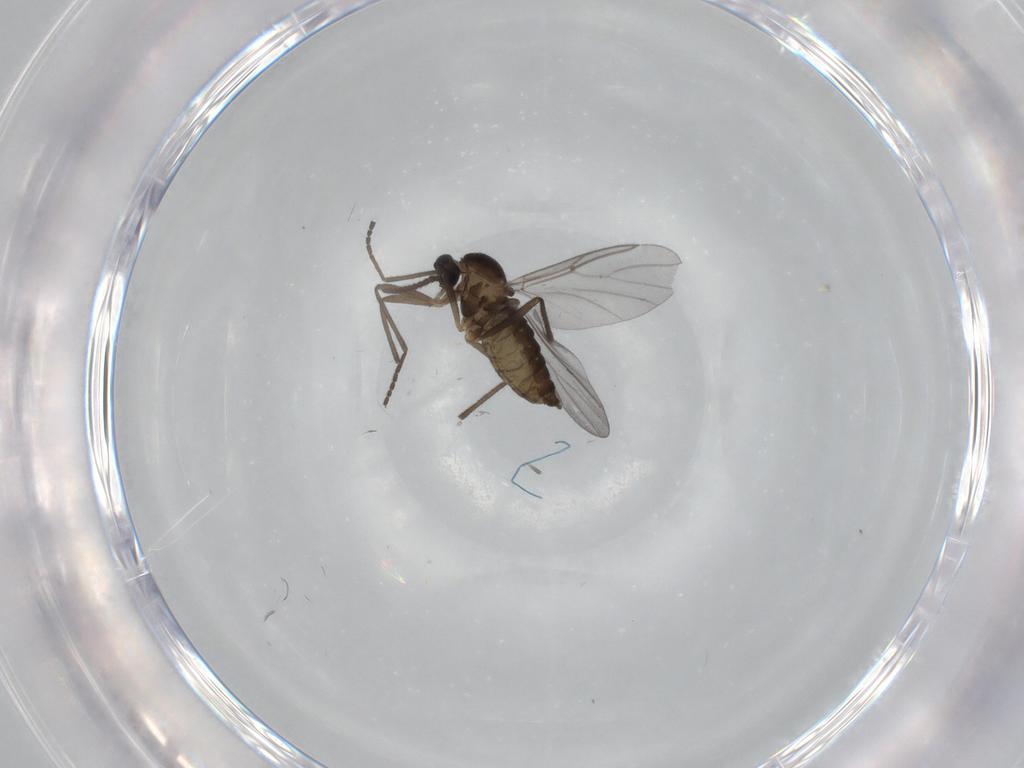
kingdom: Animalia
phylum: Arthropoda
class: Insecta
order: Diptera
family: Cecidomyiidae
